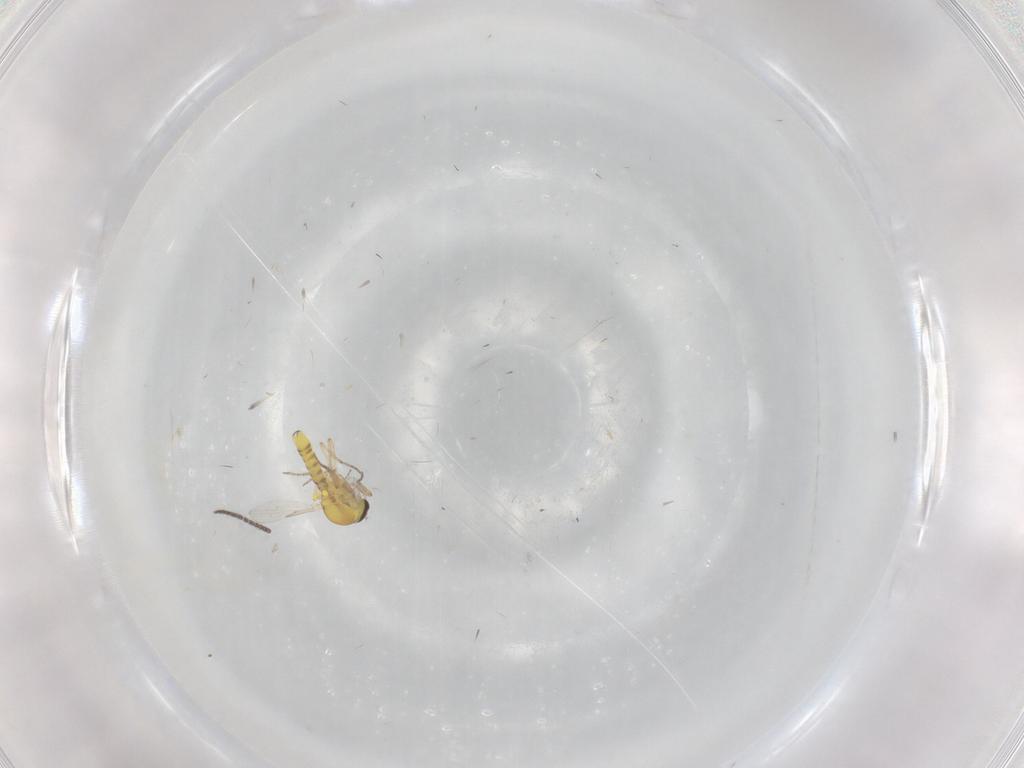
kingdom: Animalia
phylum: Arthropoda
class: Insecta
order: Diptera
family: Ceratopogonidae
